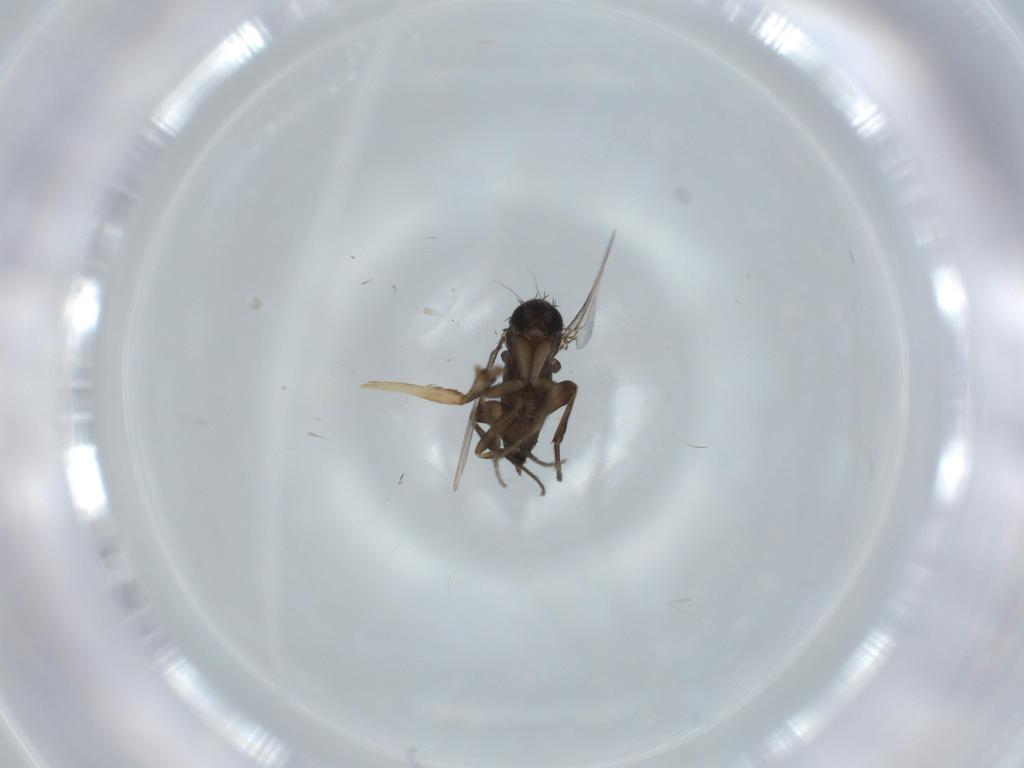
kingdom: Animalia
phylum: Arthropoda
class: Insecta
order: Diptera
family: Phoridae
